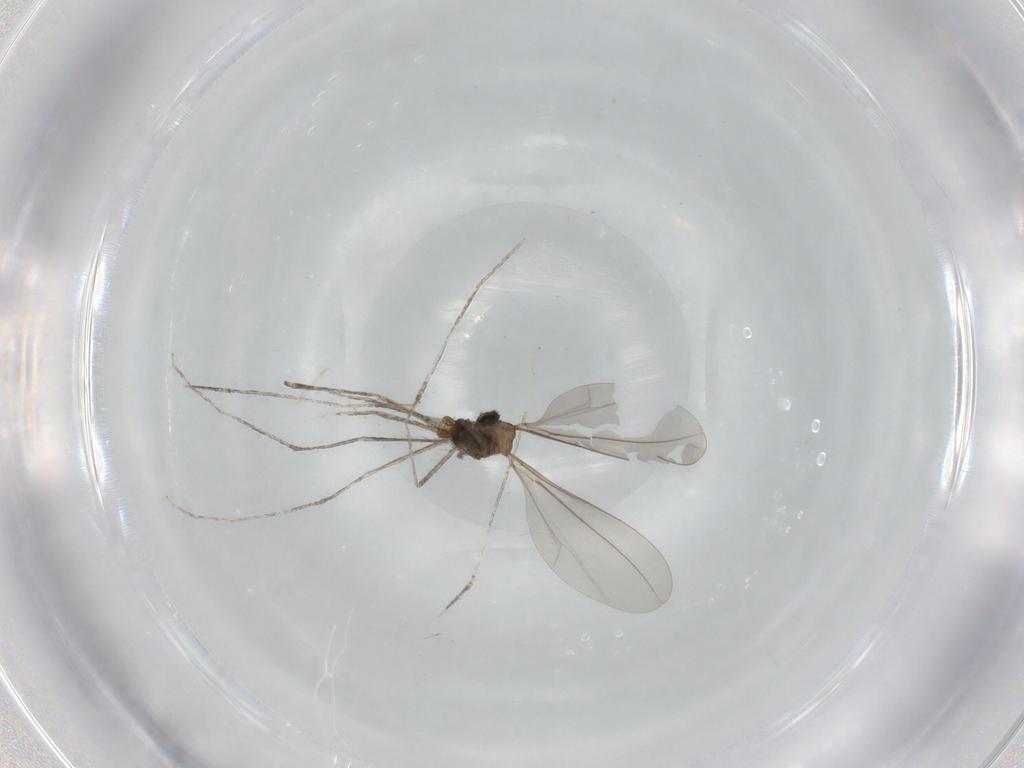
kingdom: Animalia
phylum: Arthropoda
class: Insecta
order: Diptera
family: Cecidomyiidae
